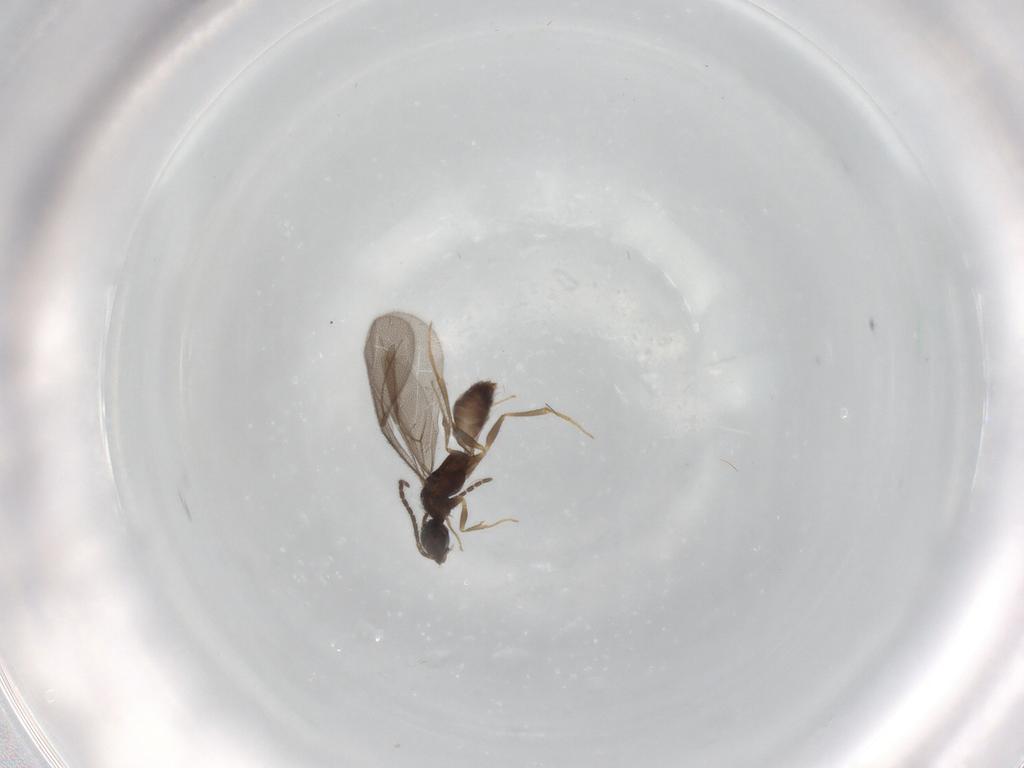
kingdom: Animalia
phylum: Arthropoda
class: Insecta
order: Hymenoptera
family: Bethylidae
